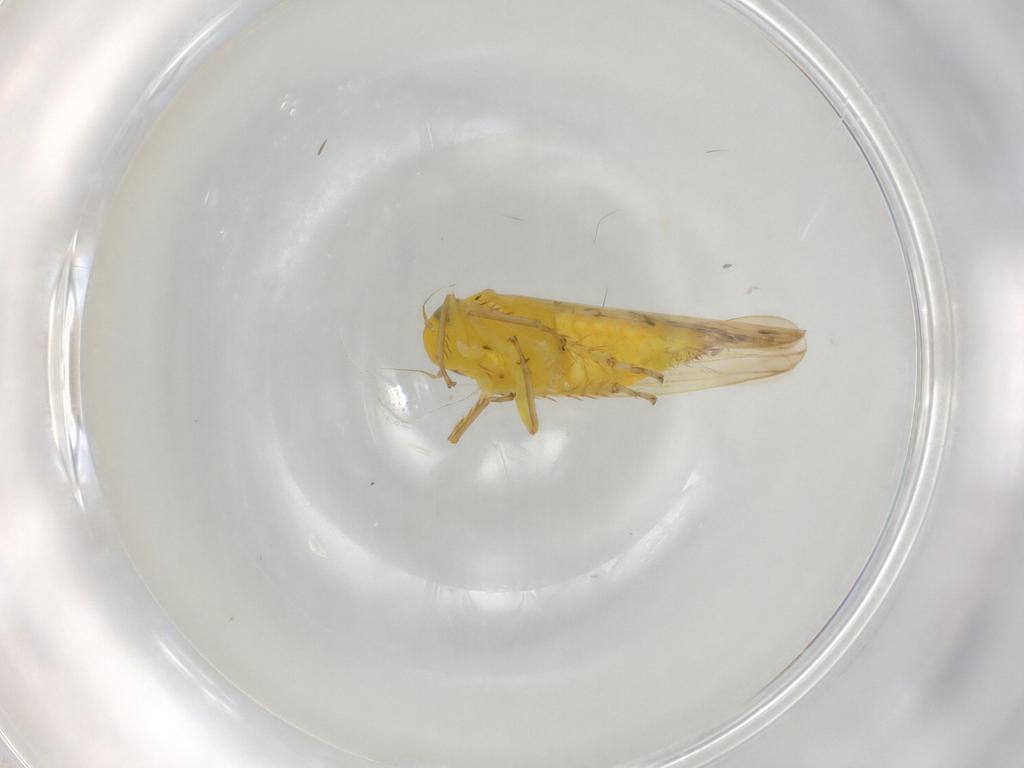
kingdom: Animalia
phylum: Arthropoda
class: Insecta
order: Hemiptera
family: Cicadellidae
